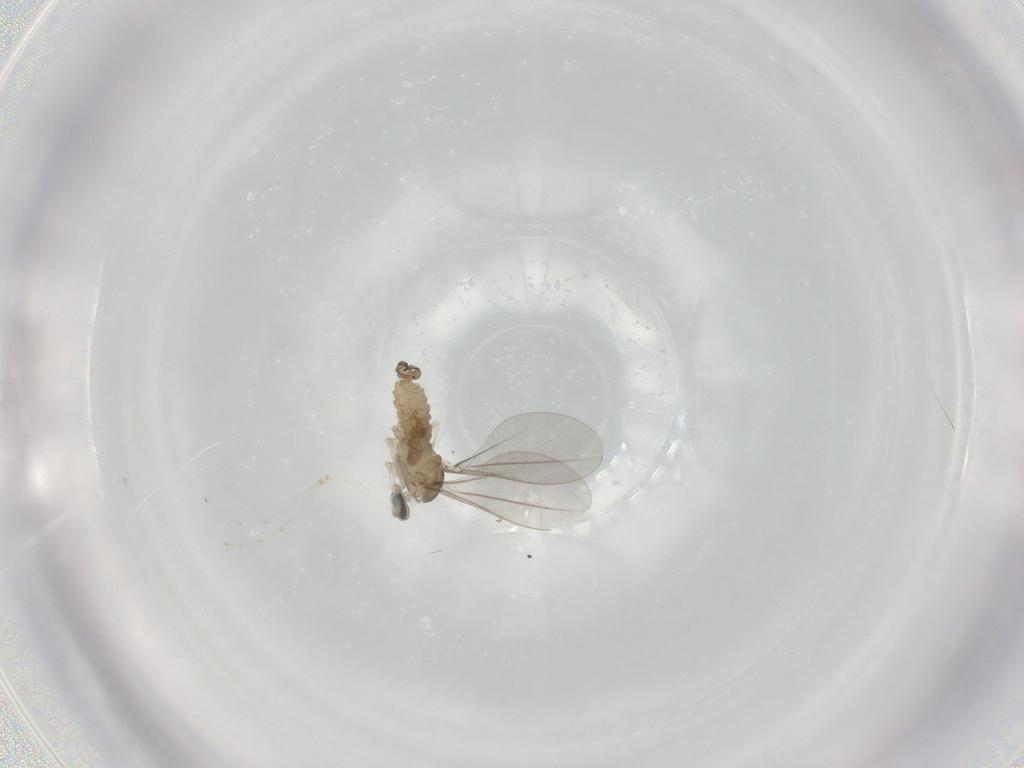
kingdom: Animalia
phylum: Arthropoda
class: Insecta
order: Diptera
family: Cecidomyiidae
